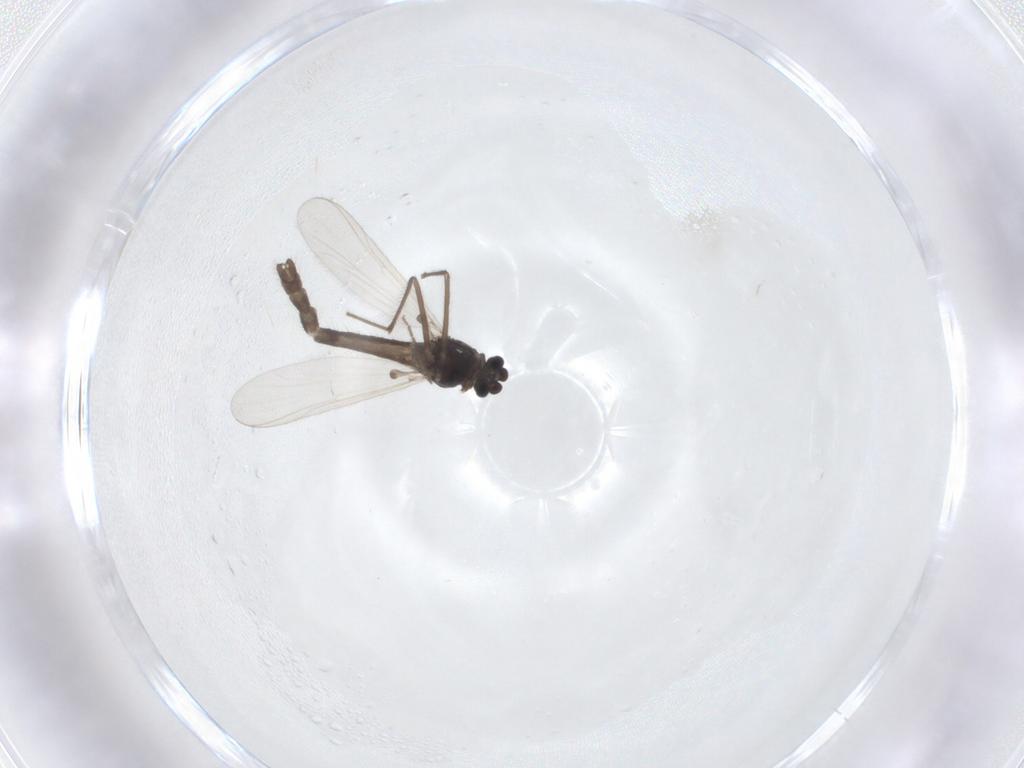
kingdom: Animalia
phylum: Arthropoda
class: Insecta
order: Diptera
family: Chironomidae
